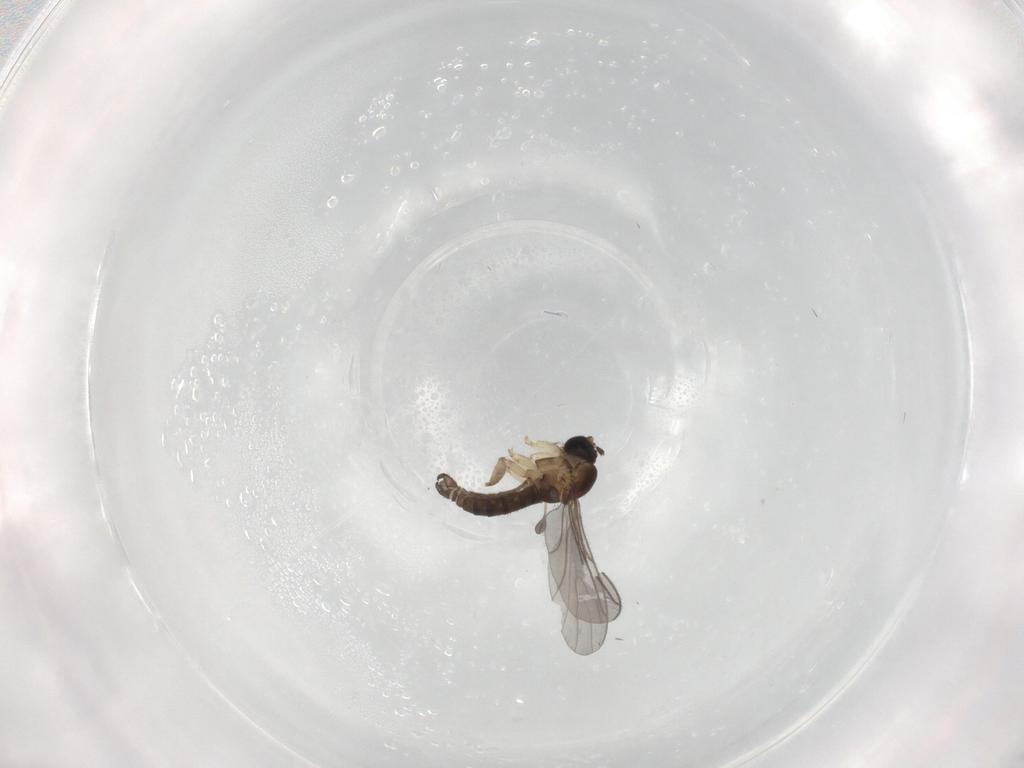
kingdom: Animalia
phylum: Arthropoda
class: Insecta
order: Diptera
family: Sciaridae
